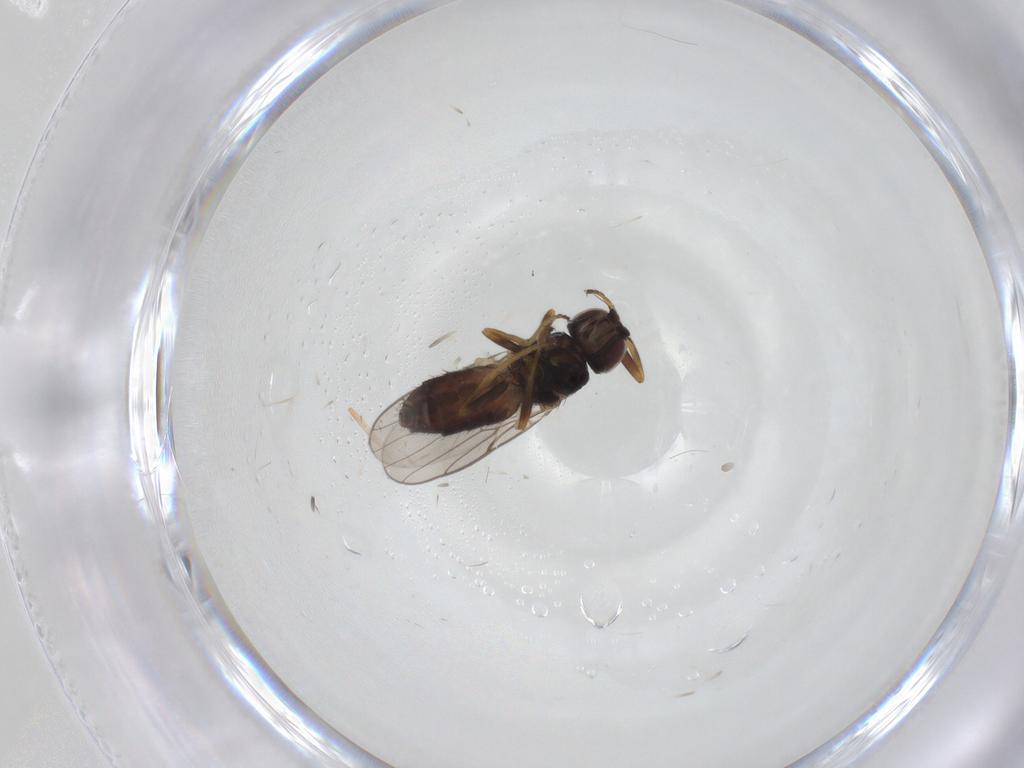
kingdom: Animalia
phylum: Arthropoda
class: Insecta
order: Diptera
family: Chloropidae
